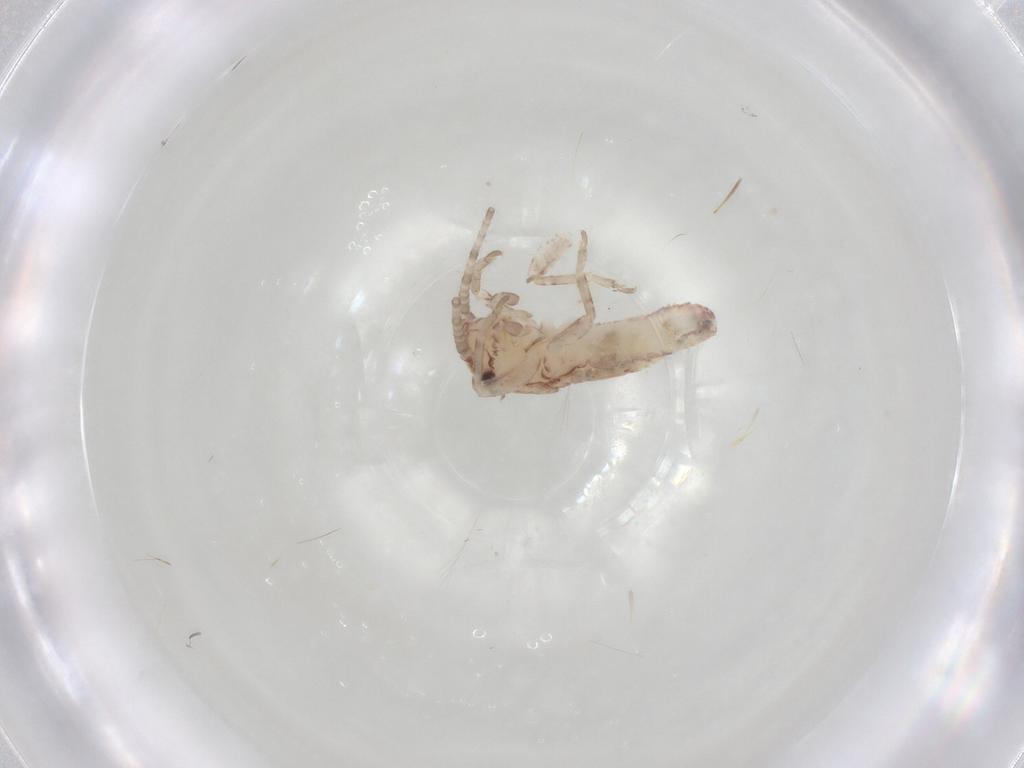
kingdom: Animalia
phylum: Arthropoda
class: Insecta
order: Orthoptera
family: Mogoplistidae
